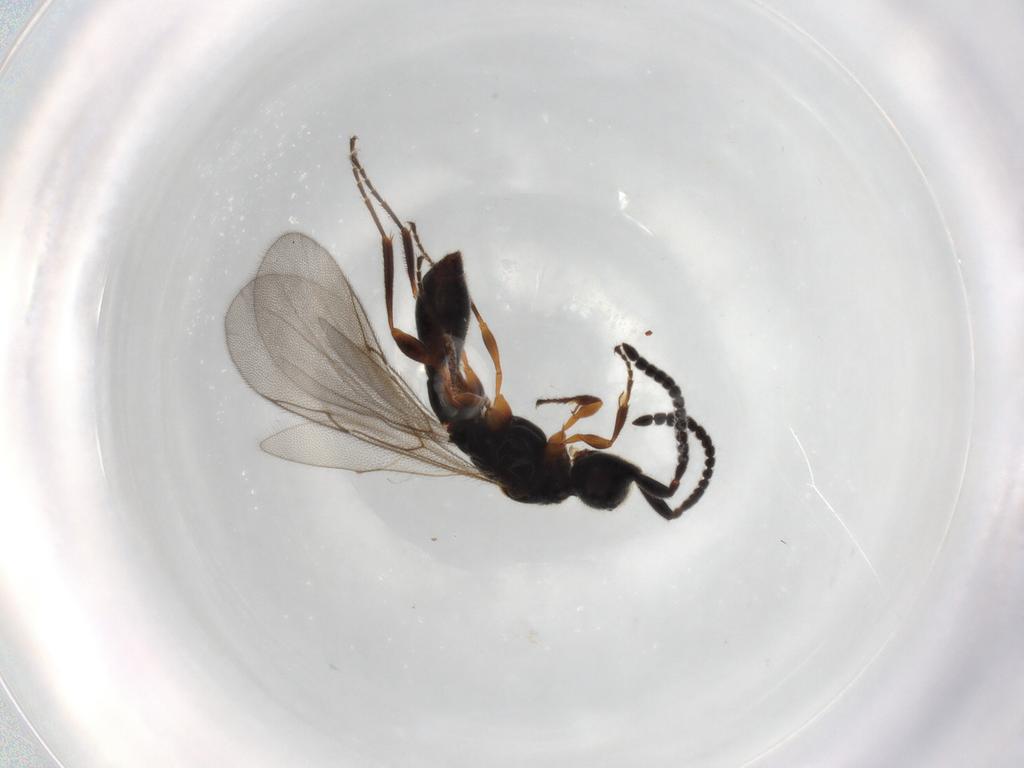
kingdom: Animalia
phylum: Arthropoda
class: Insecta
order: Hymenoptera
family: Diapriidae
